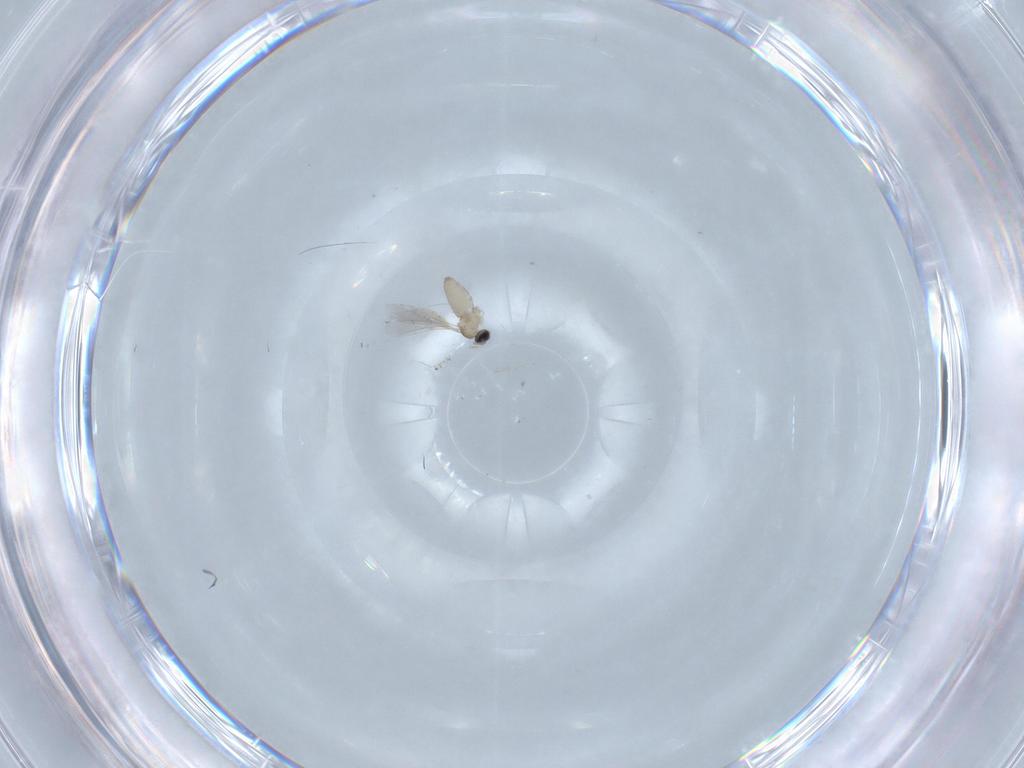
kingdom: Animalia
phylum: Arthropoda
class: Insecta
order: Diptera
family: Cecidomyiidae
